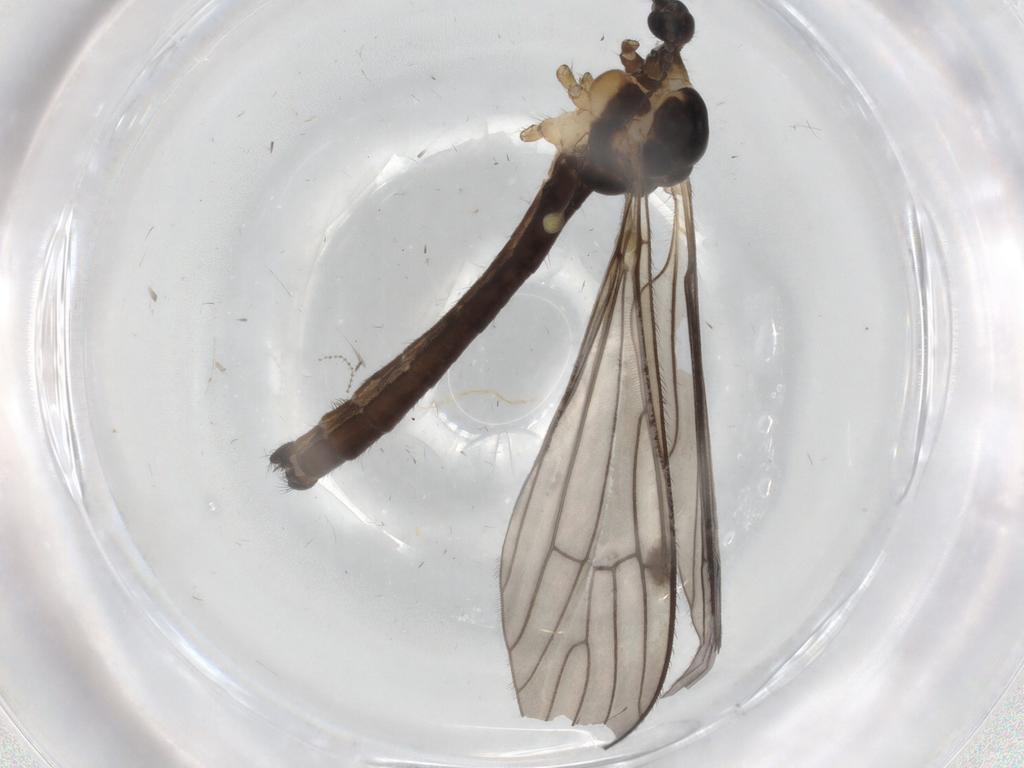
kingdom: Animalia
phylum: Arthropoda
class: Insecta
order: Diptera
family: Limoniidae
